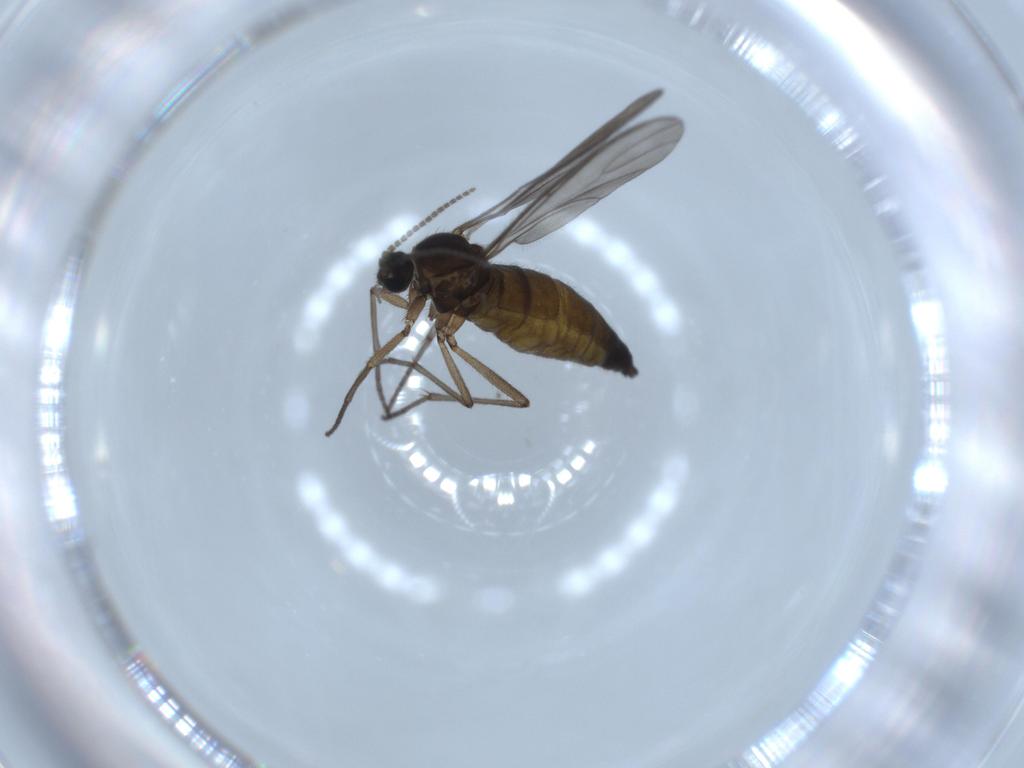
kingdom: Animalia
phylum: Arthropoda
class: Insecta
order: Diptera
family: Sciaridae
